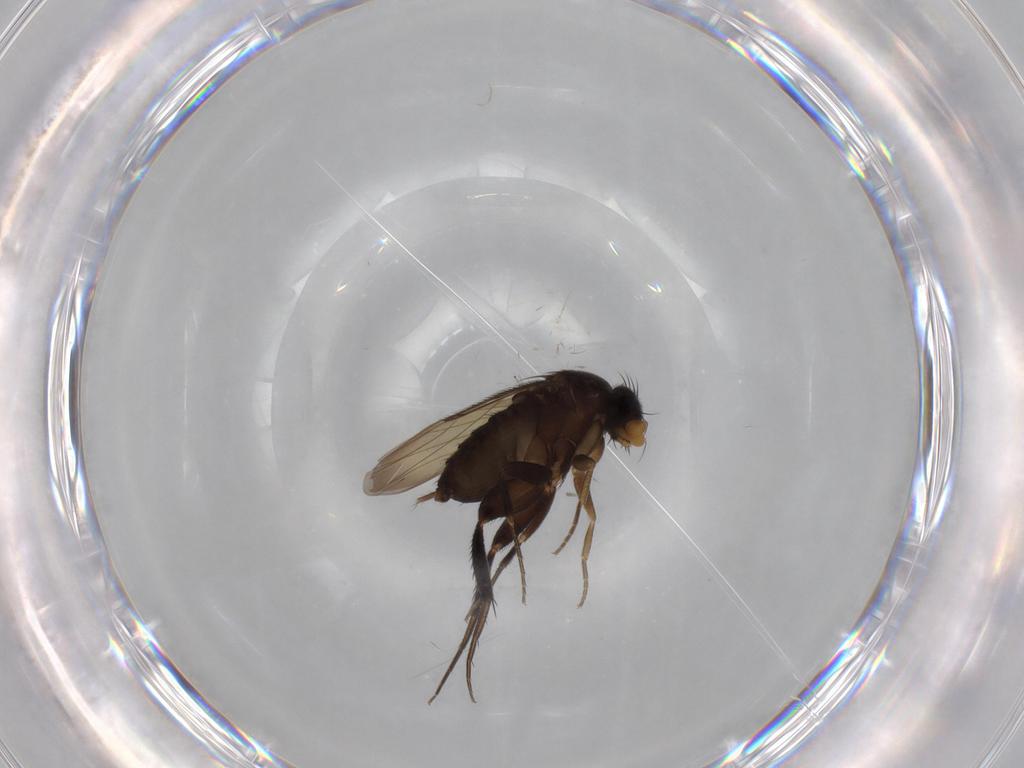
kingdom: Animalia
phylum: Arthropoda
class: Insecta
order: Diptera
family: Phoridae
